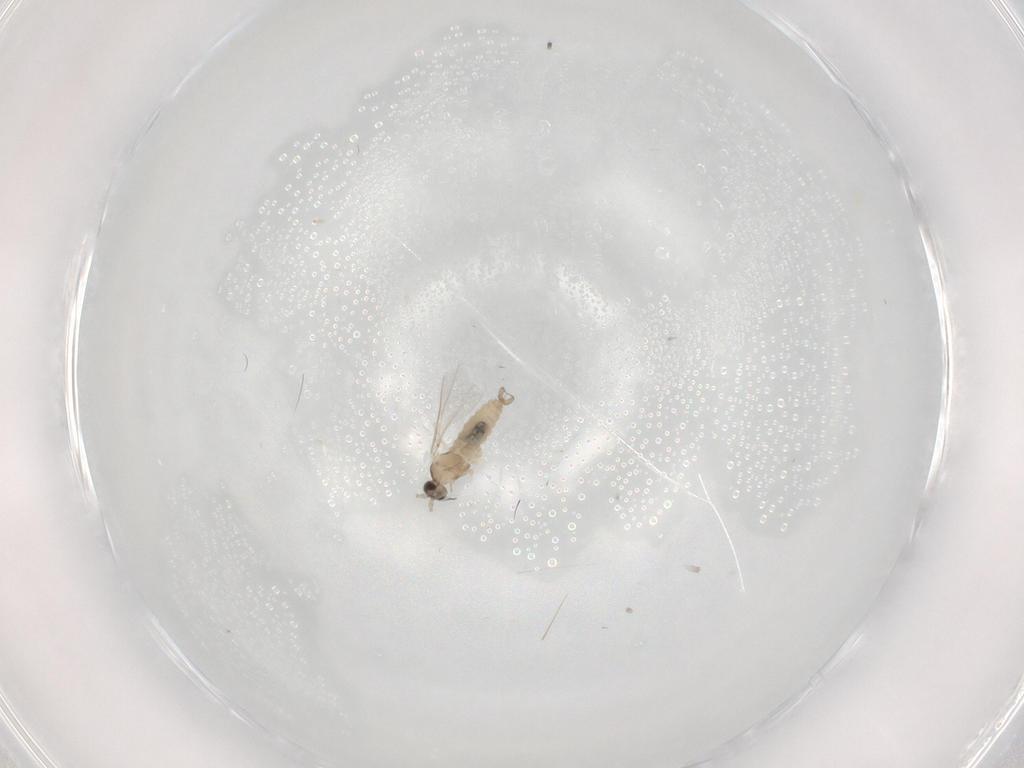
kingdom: Animalia
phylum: Arthropoda
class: Insecta
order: Diptera
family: Cecidomyiidae
